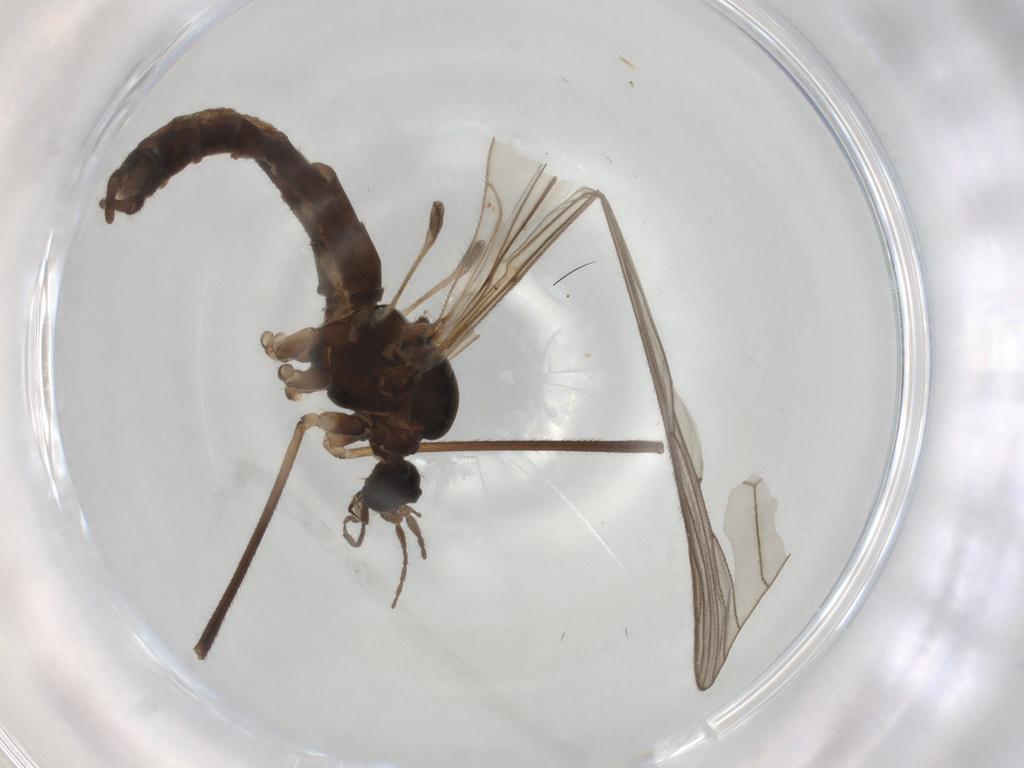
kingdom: Animalia
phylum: Arthropoda
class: Insecta
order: Diptera
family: Trichoceridae
